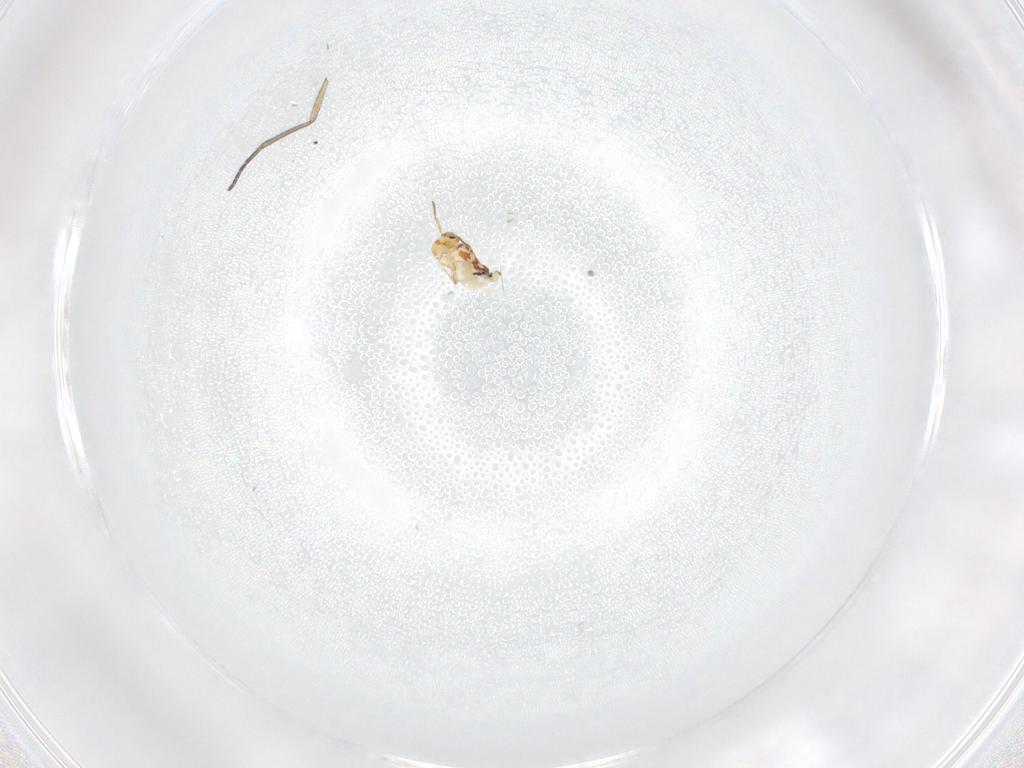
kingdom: Animalia
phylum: Arthropoda
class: Collembola
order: Symphypleona
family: Bourletiellidae
